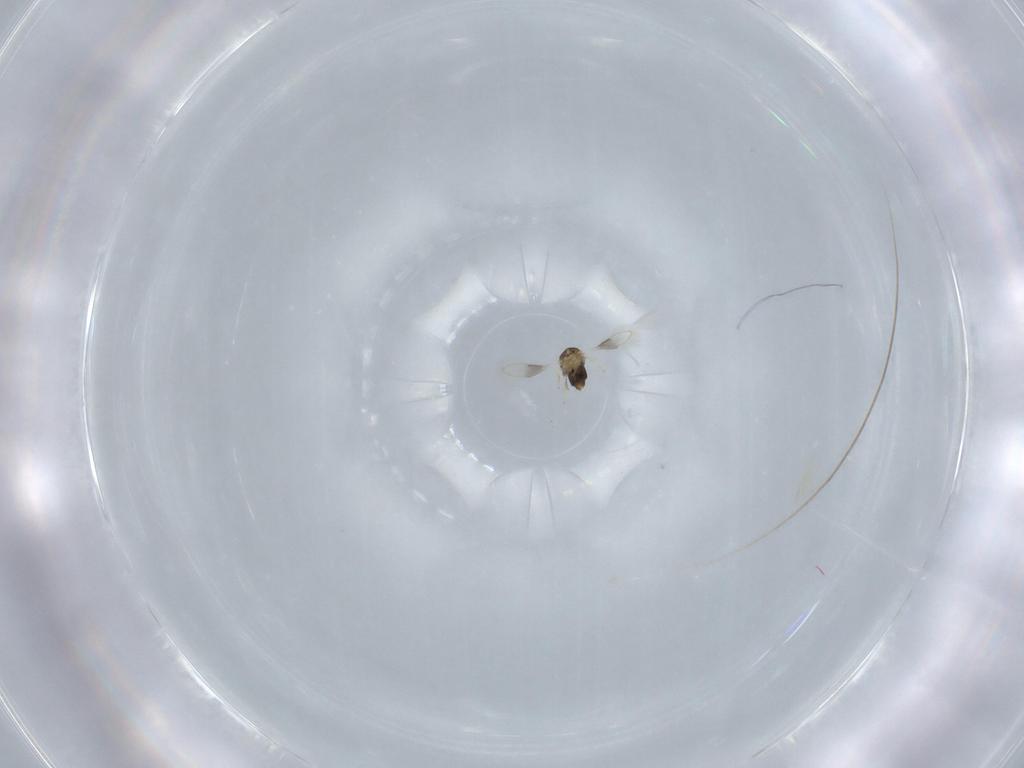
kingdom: Animalia
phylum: Arthropoda
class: Insecta
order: Hymenoptera
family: Aphelinidae
